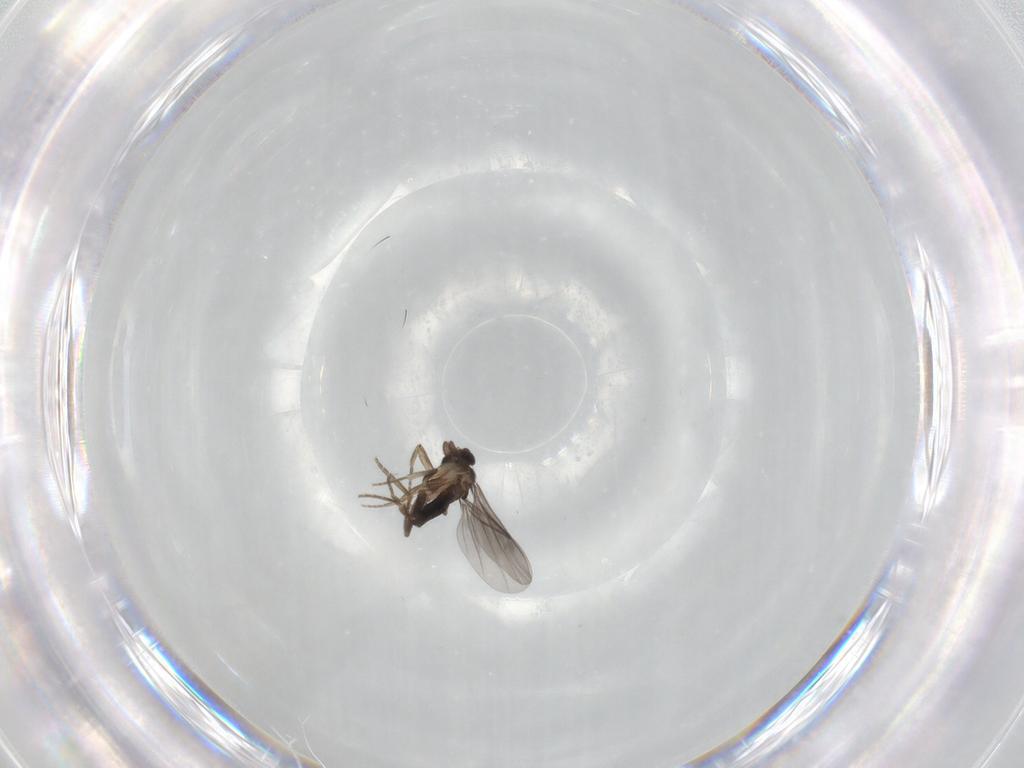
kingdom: Animalia
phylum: Arthropoda
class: Insecta
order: Diptera
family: Phoridae
